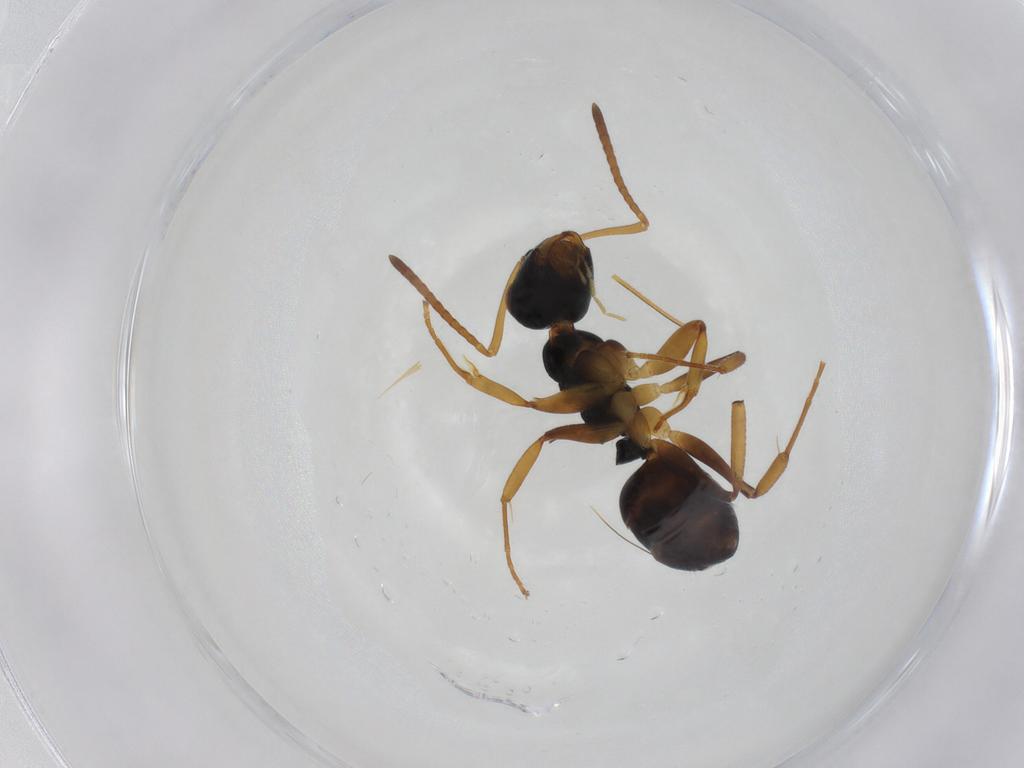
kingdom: Animalia
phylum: Arthropoda
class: Insecta
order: Hymenoptera
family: Formicidae
